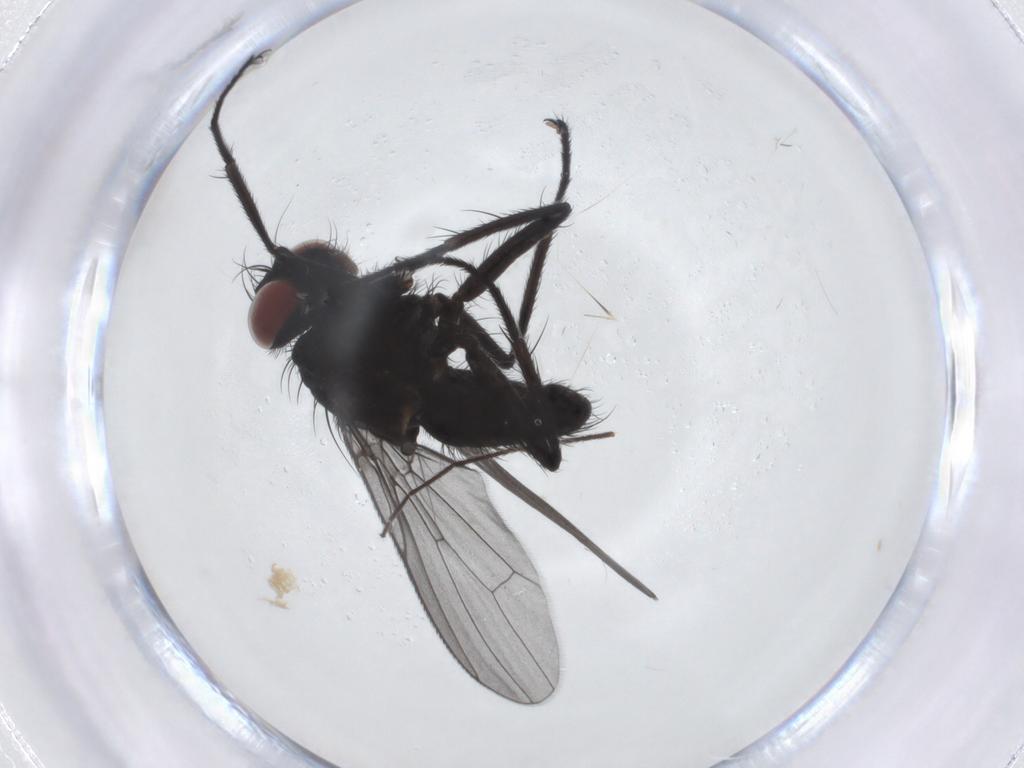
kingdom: Animalia
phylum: Arthropoda
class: Insecta
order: Diptera
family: Muscidae
